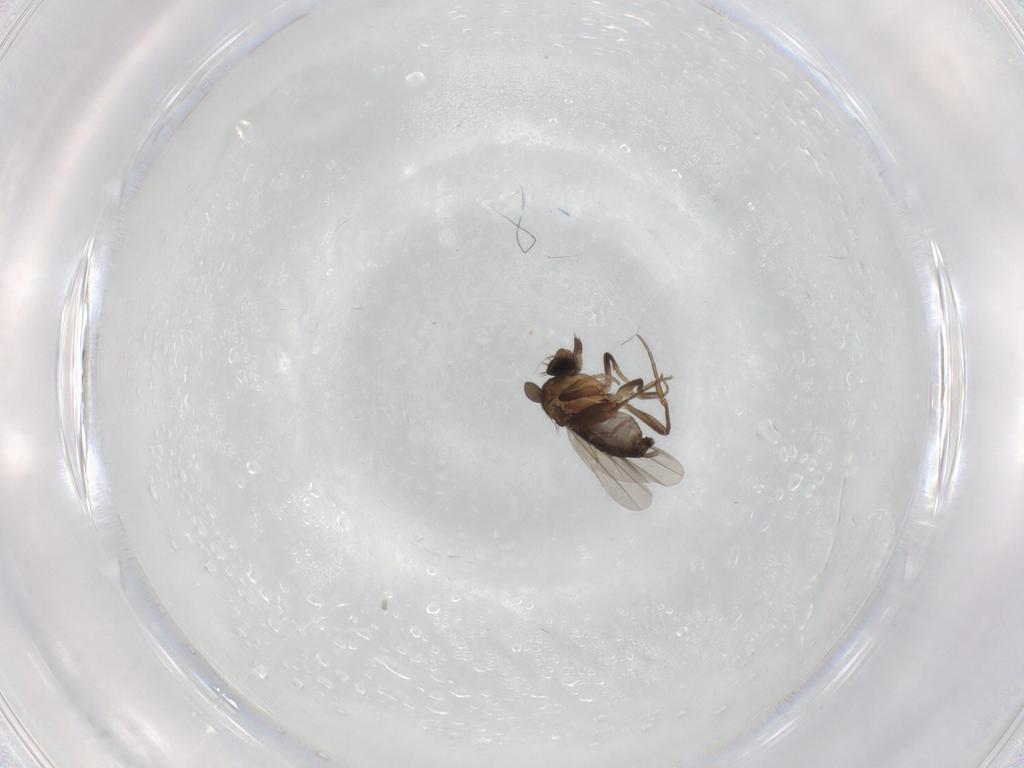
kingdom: Animalia
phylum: Arthropoda
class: Insecta
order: Diptera
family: Phoridae
